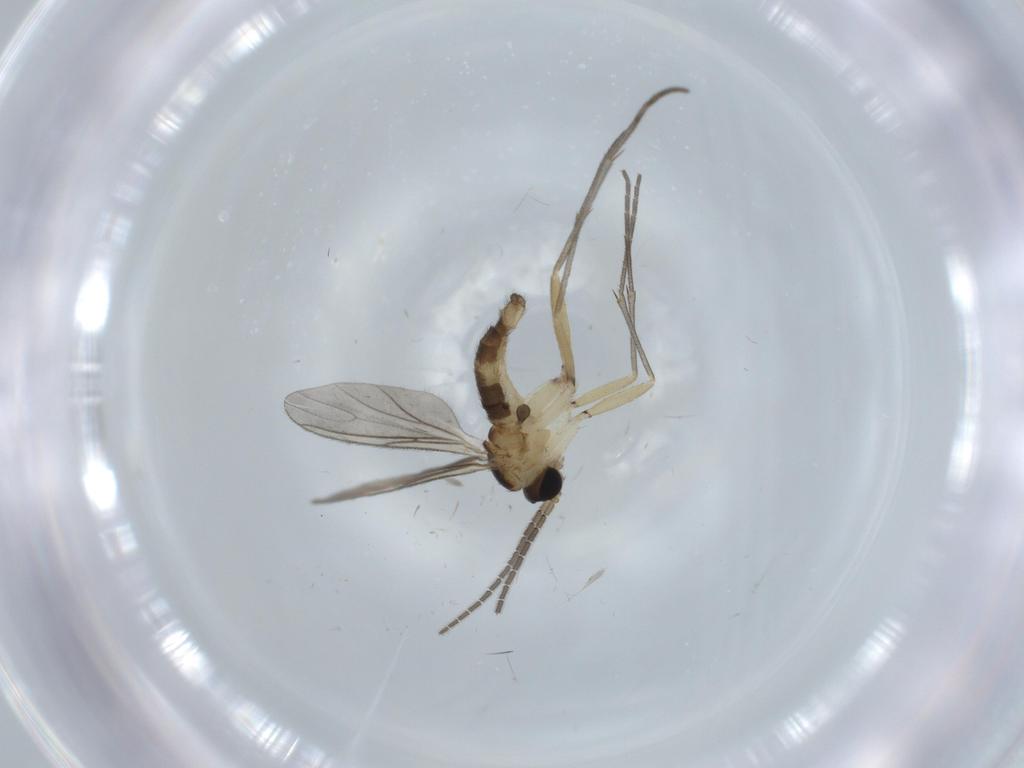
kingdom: Animalia
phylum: Arthropoda
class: Insecta
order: Diptera
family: Sciaridae
